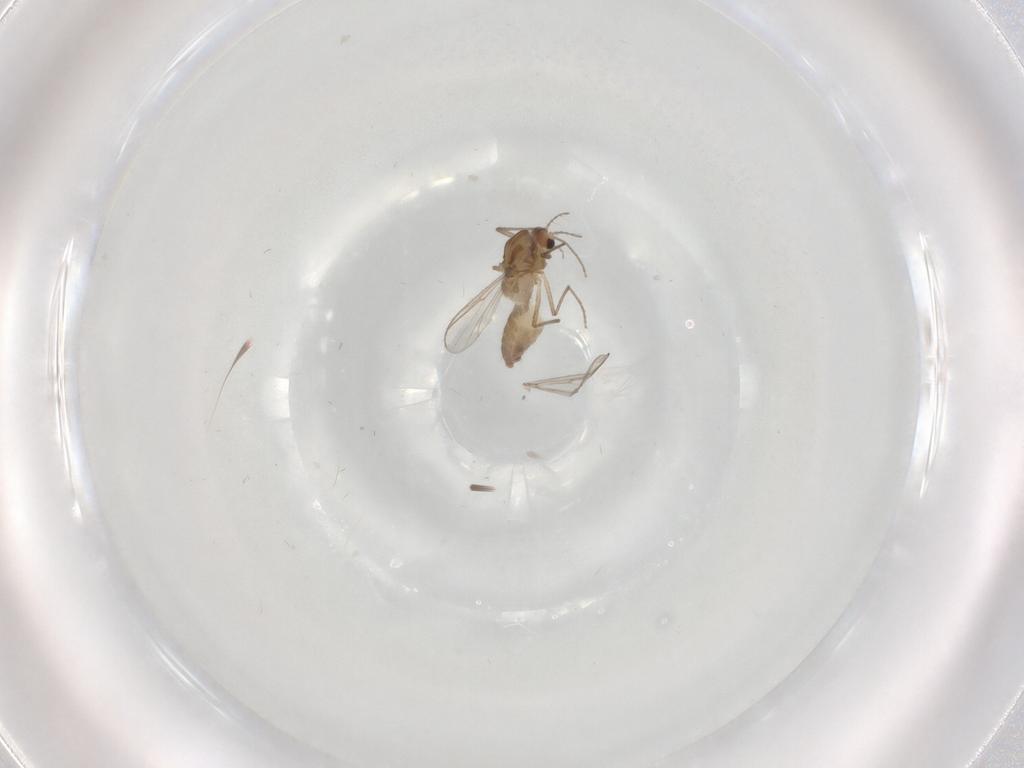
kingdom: Animalia
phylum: Arthropoda
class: Insecta
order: Diptera
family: Chironomidae
